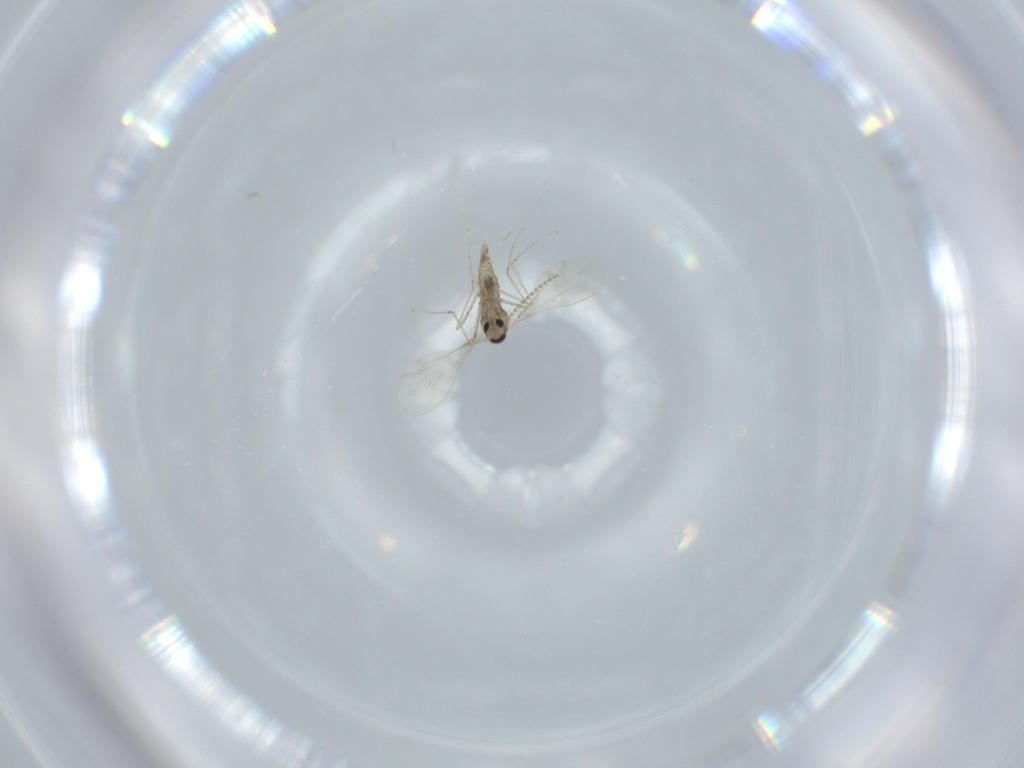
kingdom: Animalia
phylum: Arthropoda
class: Insecta
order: Diptera
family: Cecidomyiidae
